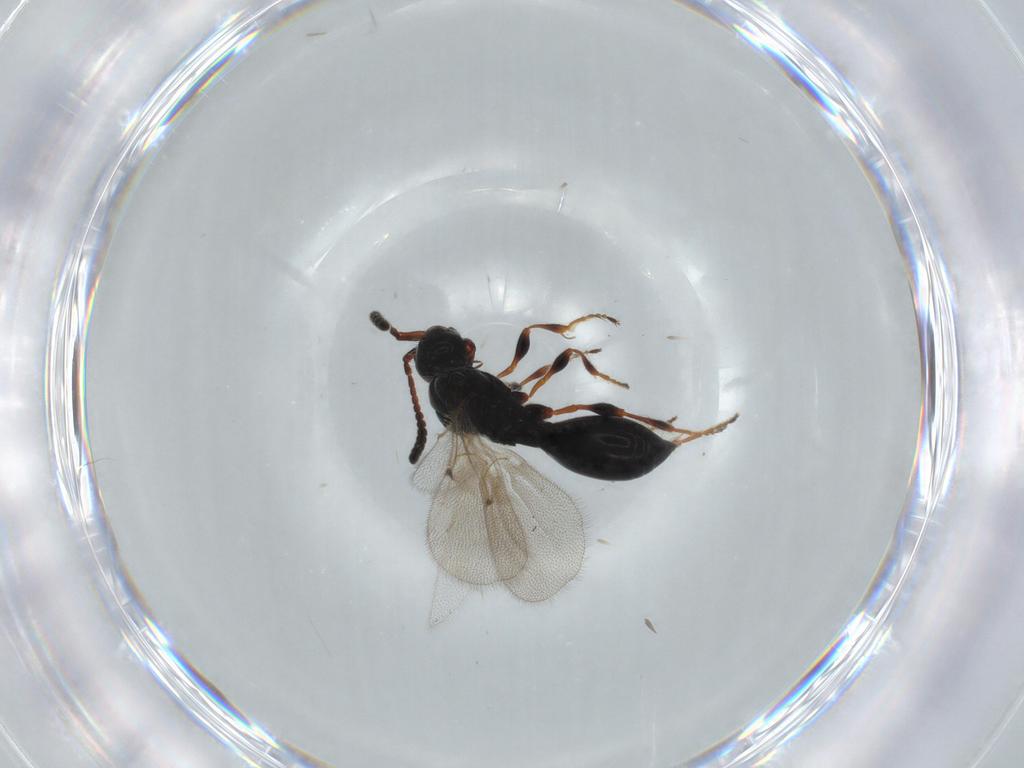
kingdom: Animalia
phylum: Arthropoda
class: Insecta
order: Hymenoptera
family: Diapriidae
